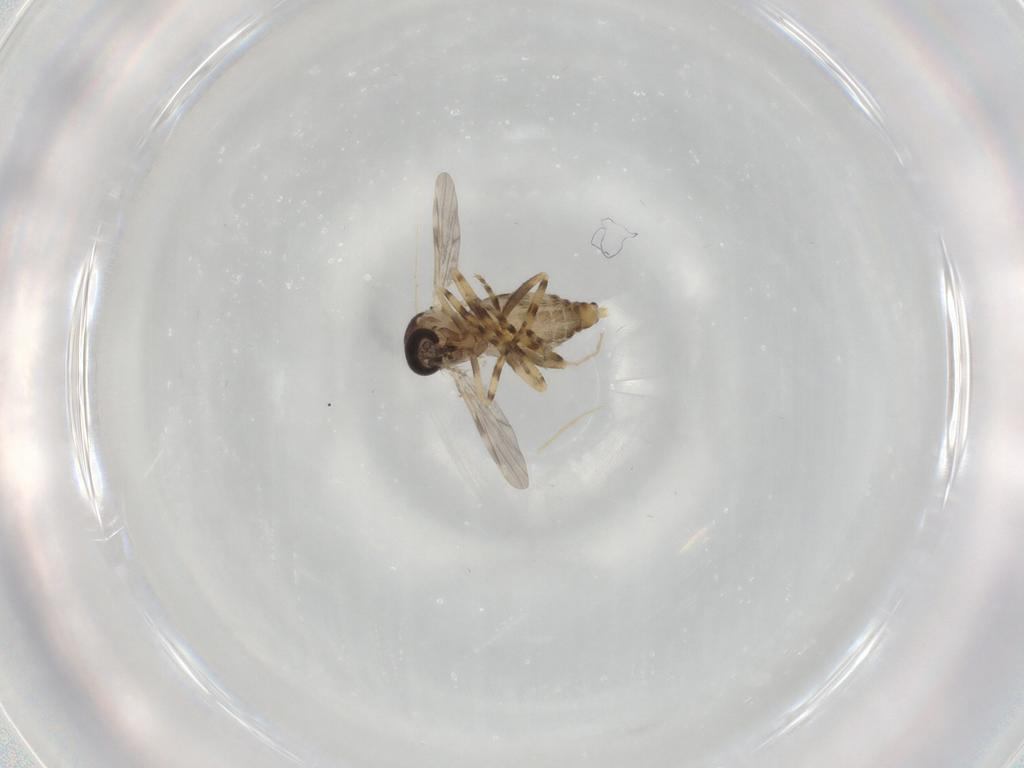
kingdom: Animalia
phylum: Arthropoda
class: Insecta
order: Diptera
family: Ceratopogonidae
